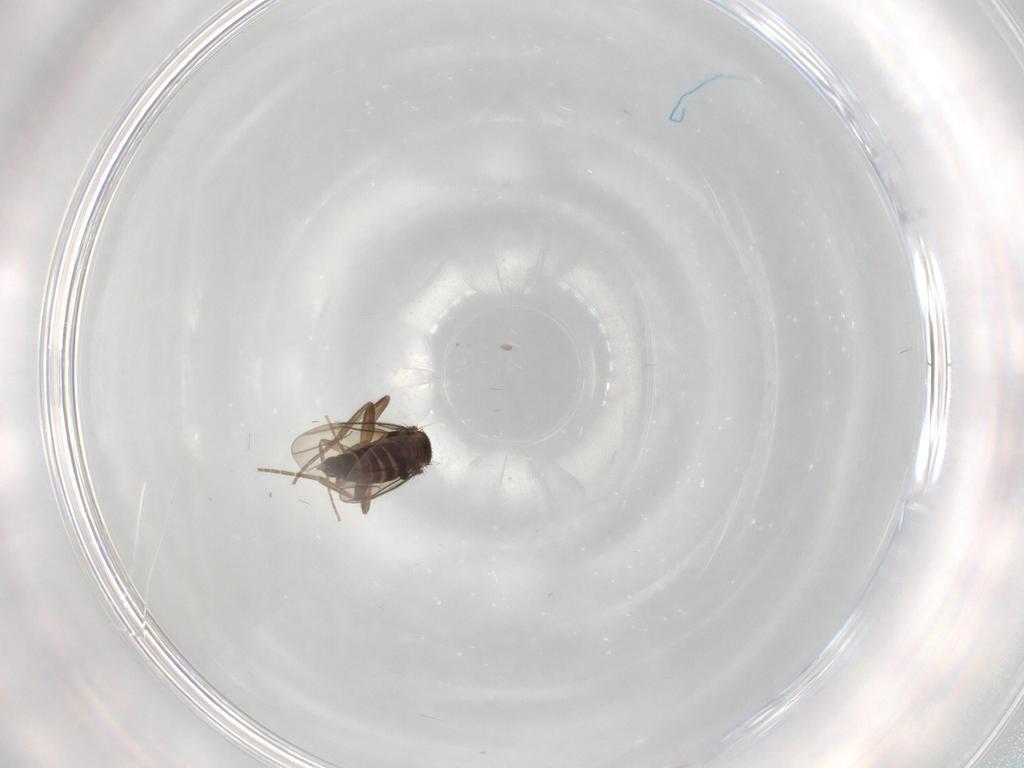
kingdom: Animalia
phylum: Arthropoda
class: Insecta
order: Diptera
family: Phoridae
